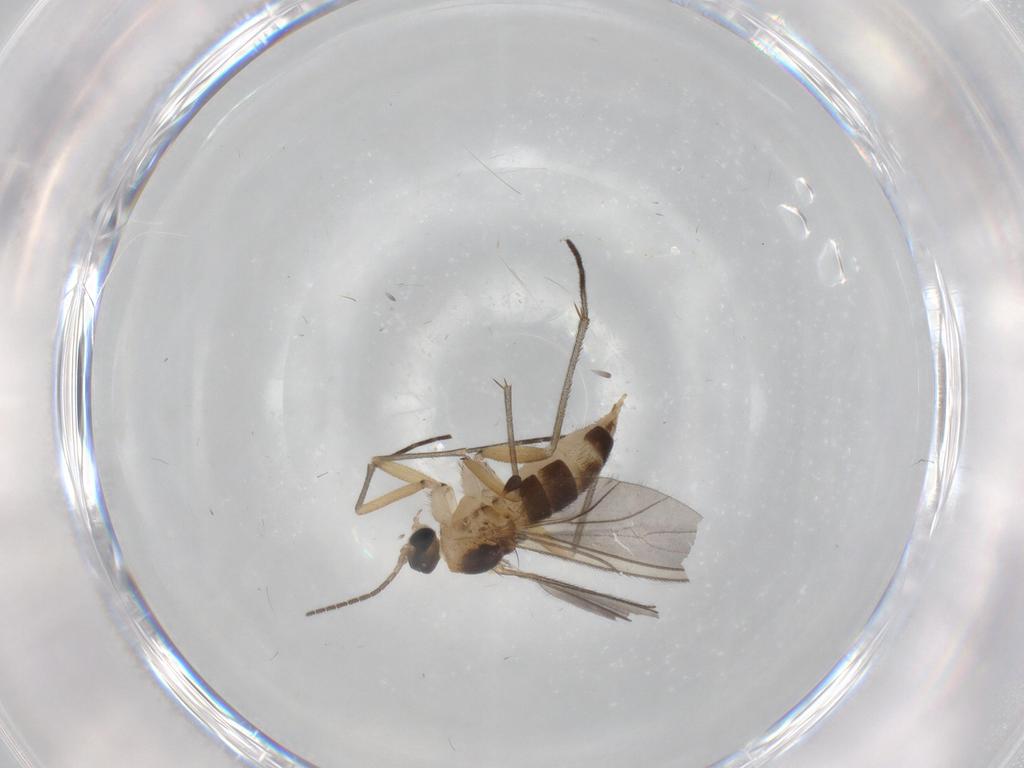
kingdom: Animalia
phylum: Arthropoda
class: Insecta
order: Diptera
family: Sciaridae
